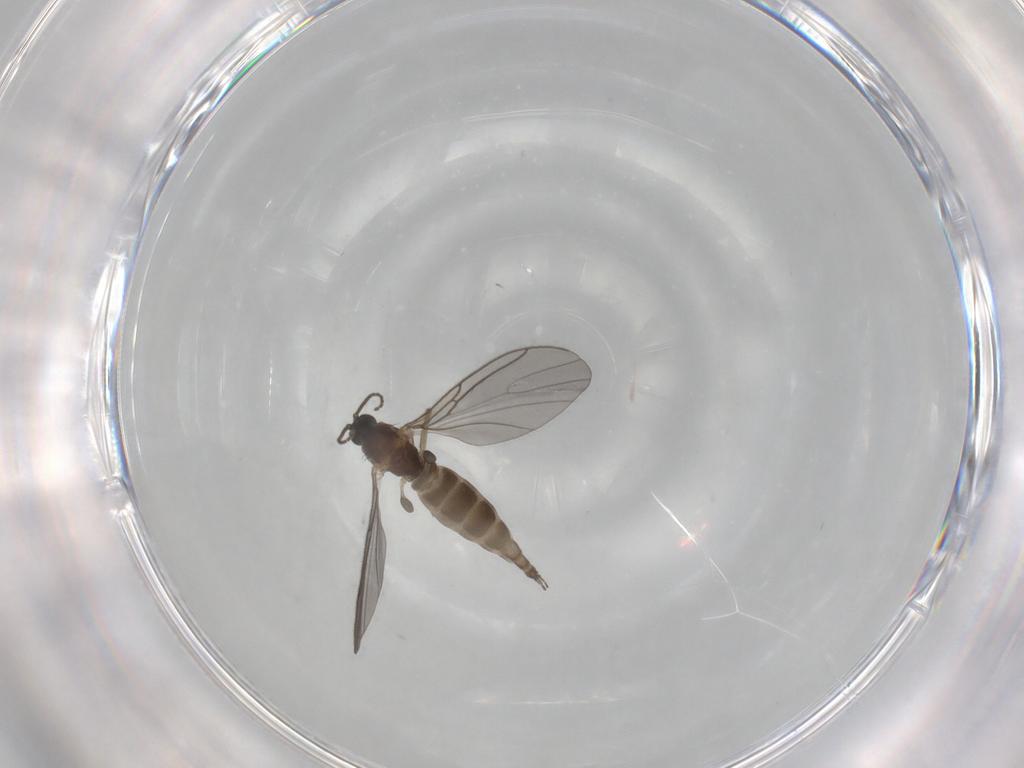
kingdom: Animalia
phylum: Arthropoda
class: Insecta
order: Diptera
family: Sciaridae
